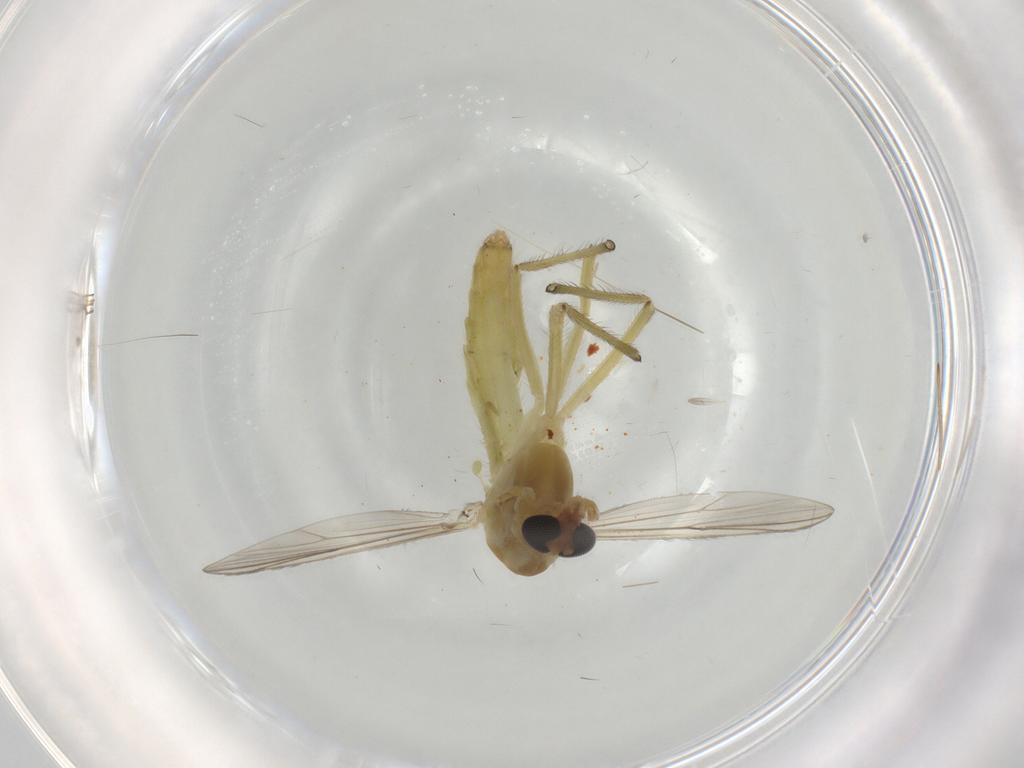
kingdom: Animalia
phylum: Arthropoda
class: Insecta
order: Diptera
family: Chironomidae
